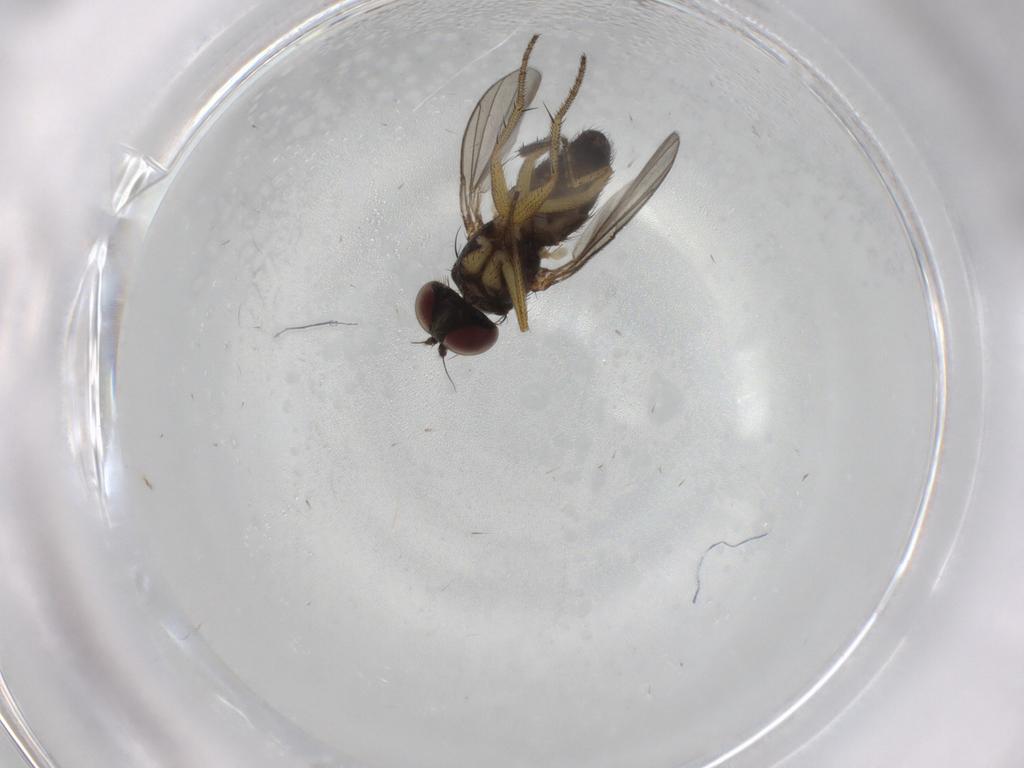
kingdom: Animalia
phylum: Arthropoda
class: Insecta
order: Diptera
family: Dolichopodidae
